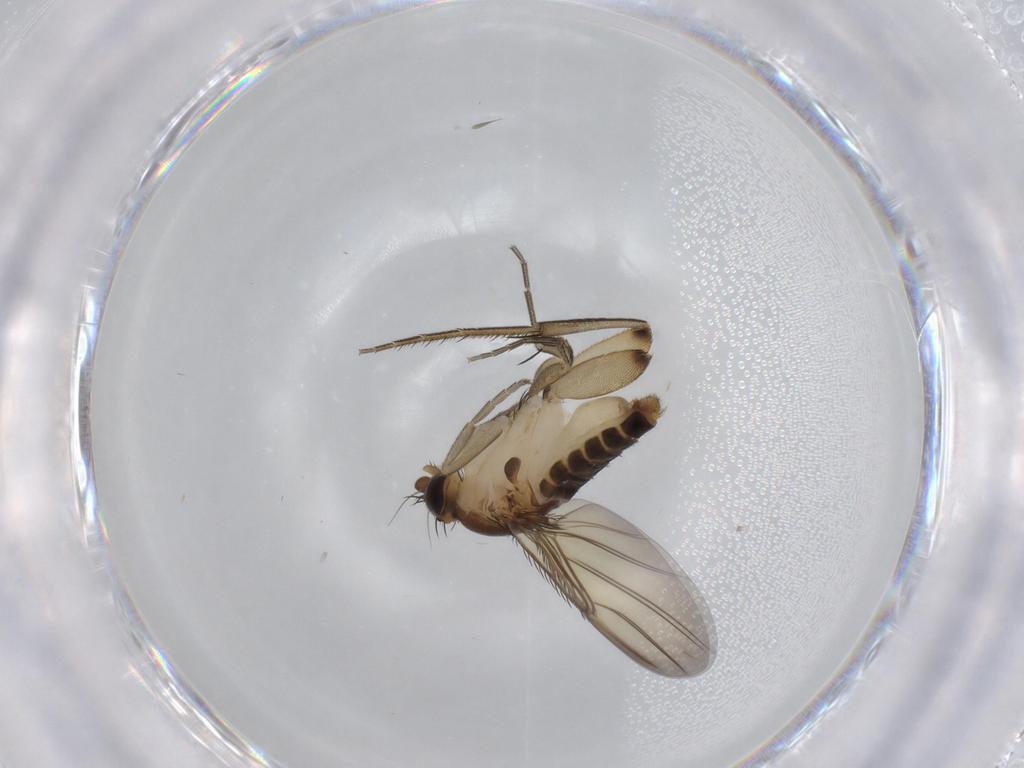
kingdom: Animalia
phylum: Arthropoda
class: Insecta
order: Diptera
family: Phoridae
